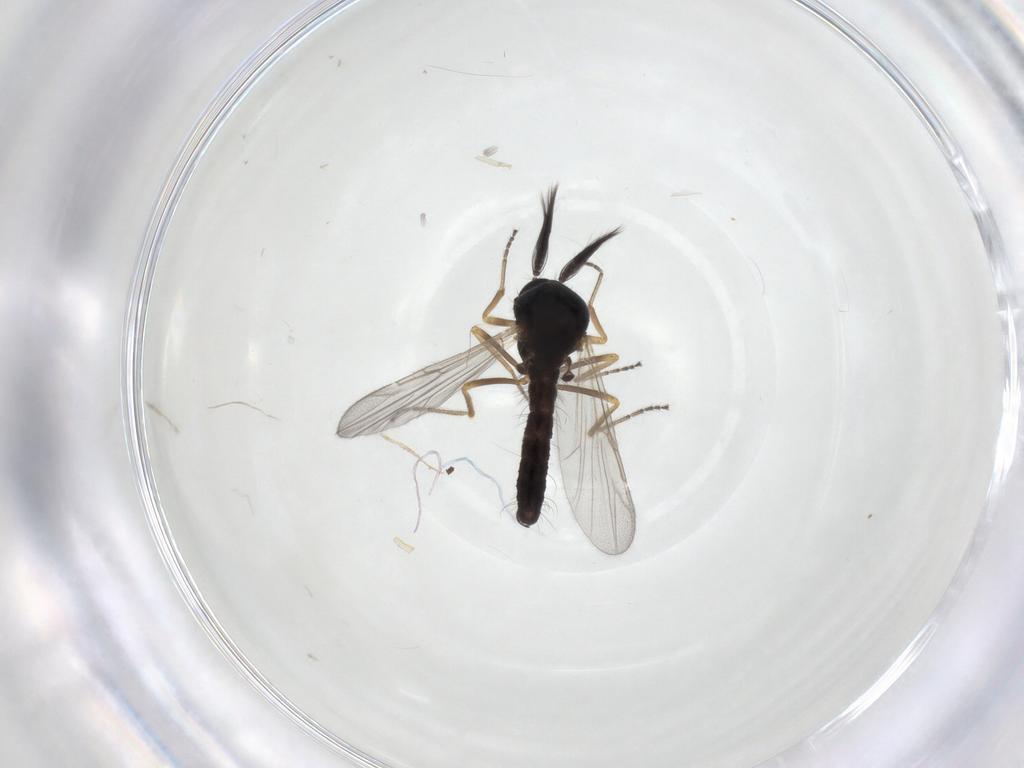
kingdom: Animalia
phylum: Arthropoda
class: Insecta
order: Diptera
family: Ceratopogonidae
